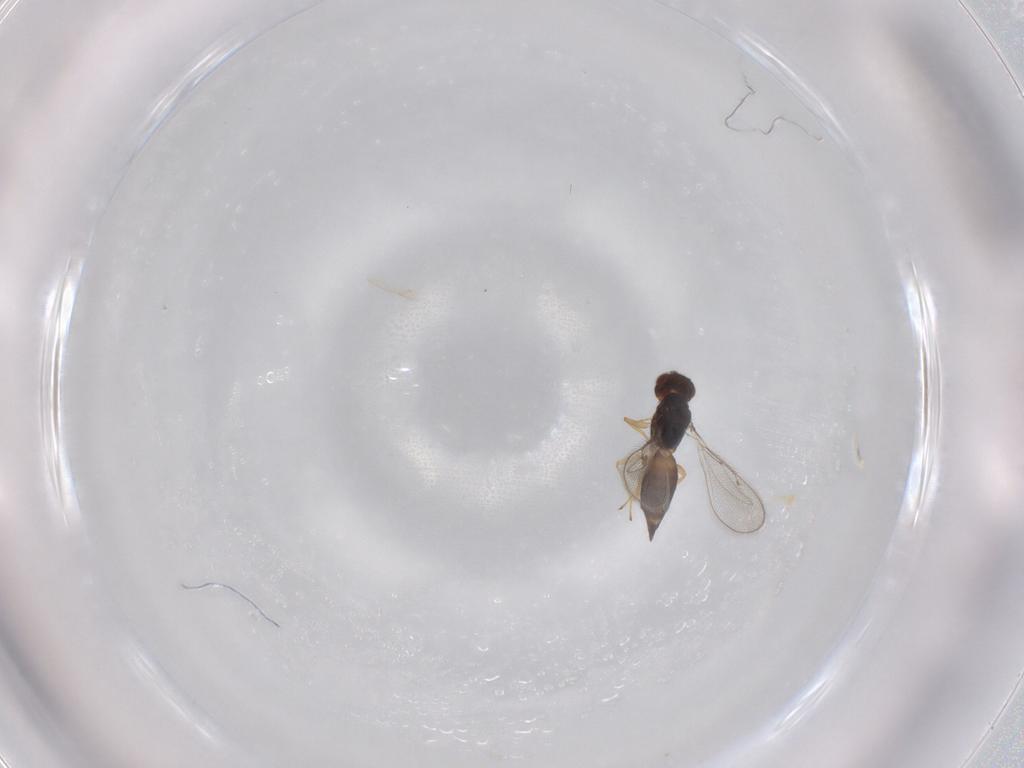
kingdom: Animalia
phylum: Arthropoda
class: Insecta
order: Hymenoptera
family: Eulophidae
